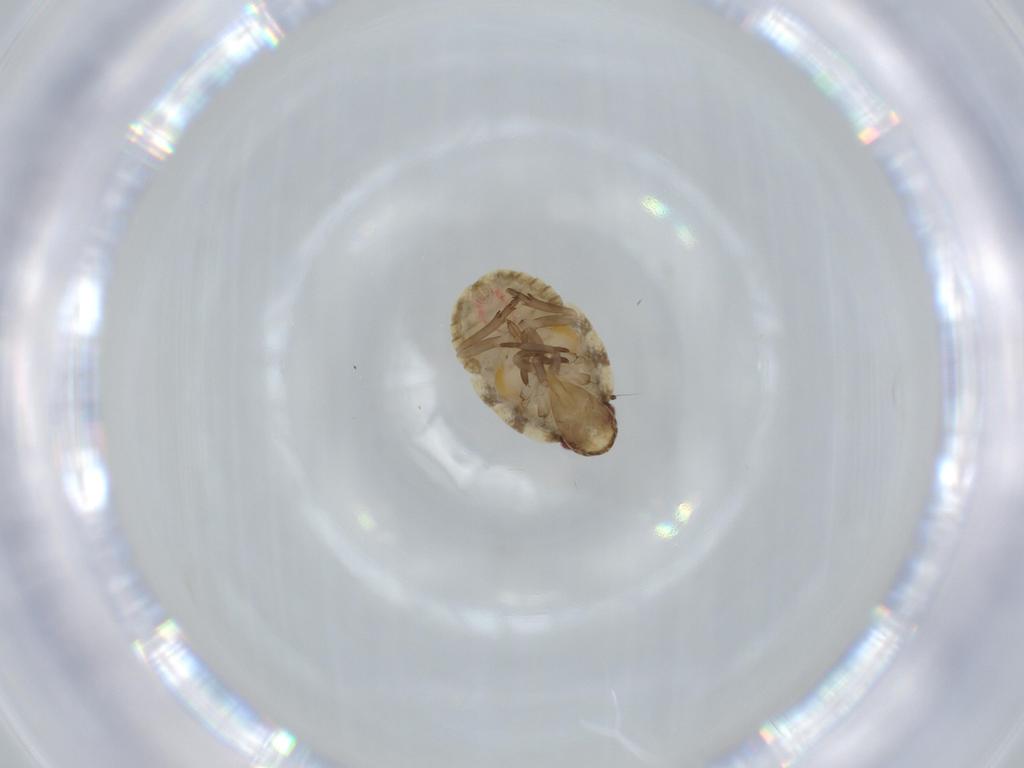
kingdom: Animalia
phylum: Arthropoda
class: Insecta
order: Hemiptera
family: Flatidae
